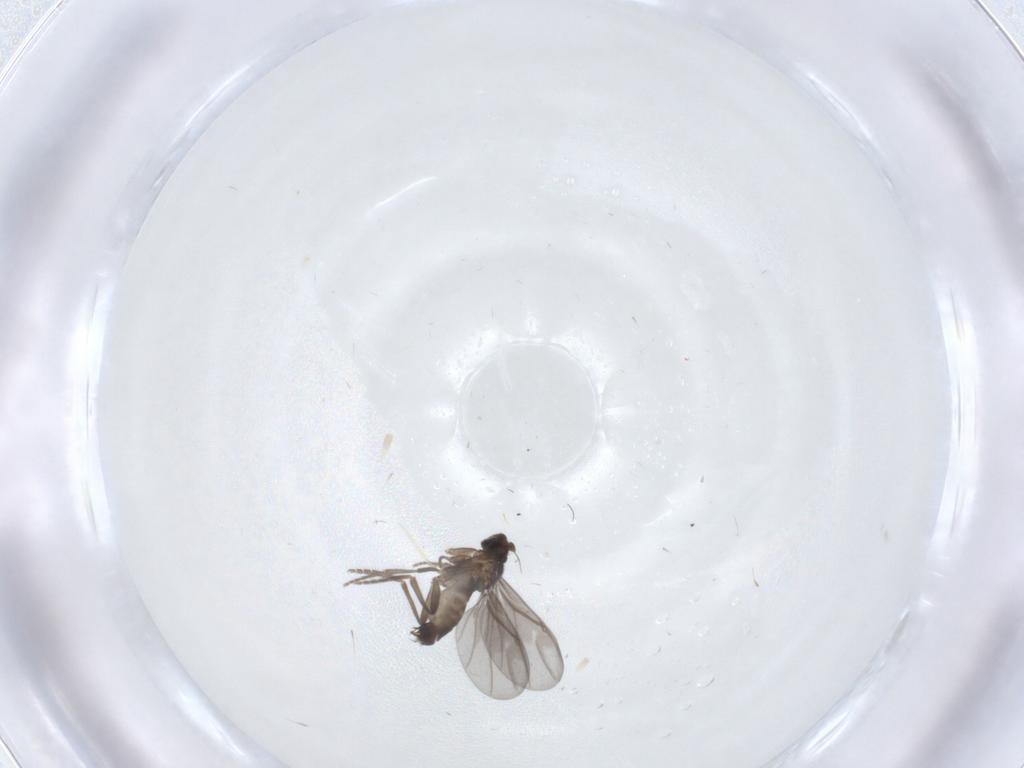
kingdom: Animalia
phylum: Arthropoda
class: Insecta
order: Diptera
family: Phoridae
